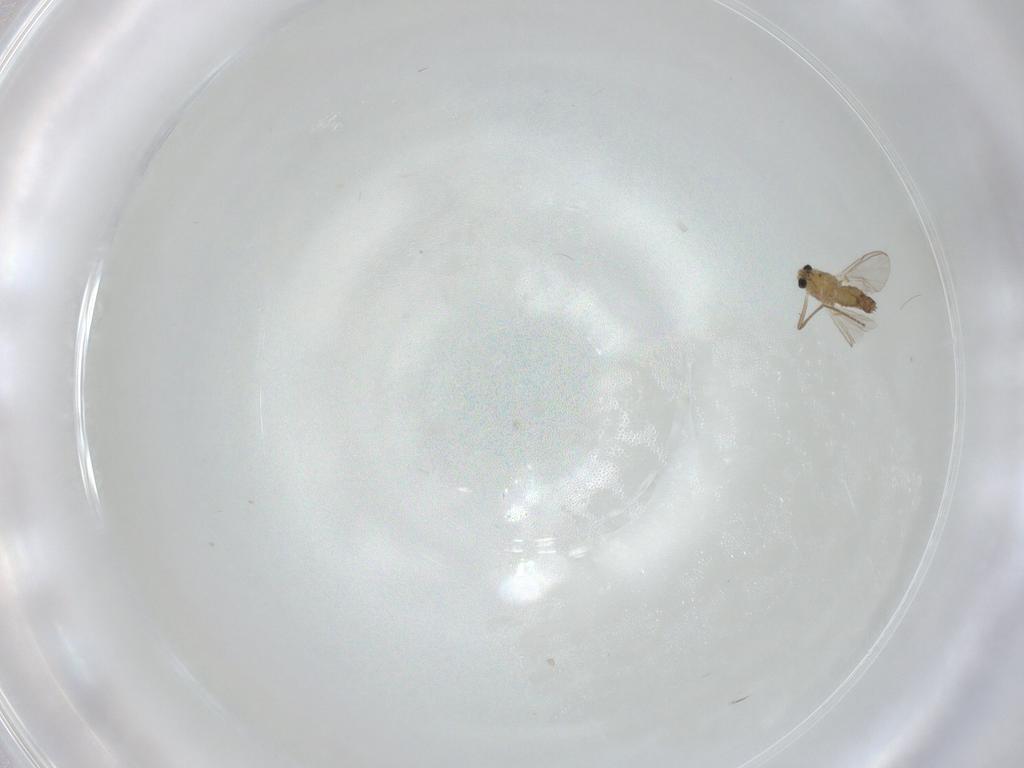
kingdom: Animalia
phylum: Arthropoda
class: Insecta
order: Diptera
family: Chironomidae
